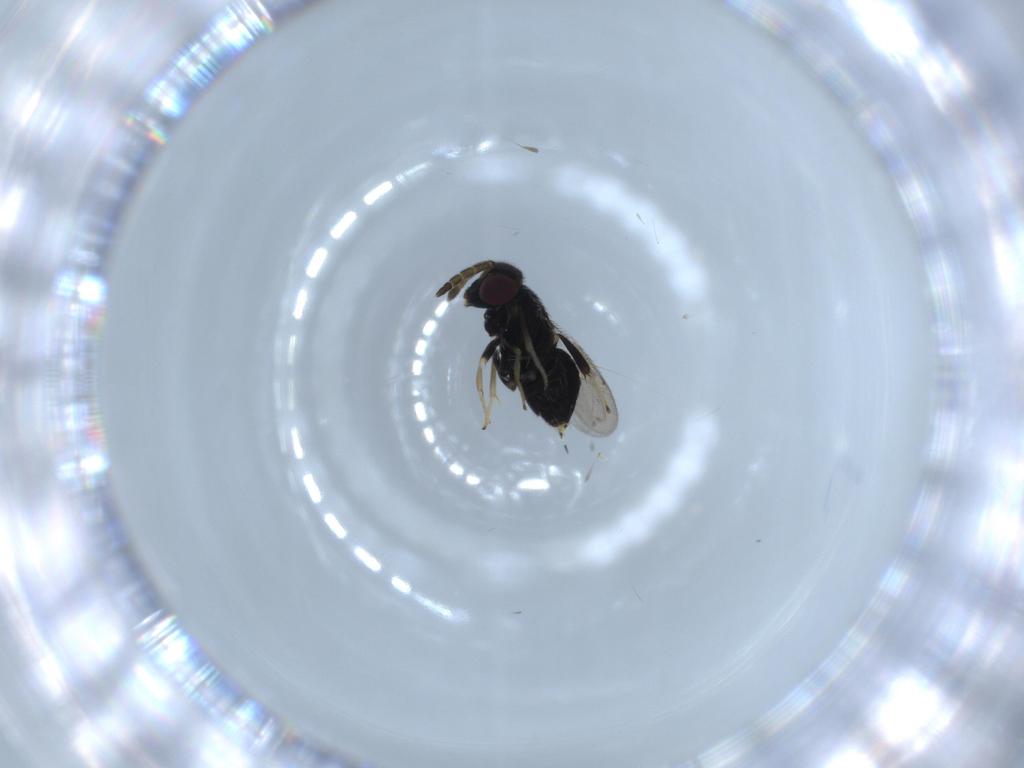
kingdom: Animalia
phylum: Arthropoda
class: Insecta
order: Hymenoptera
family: Aphelinidae
